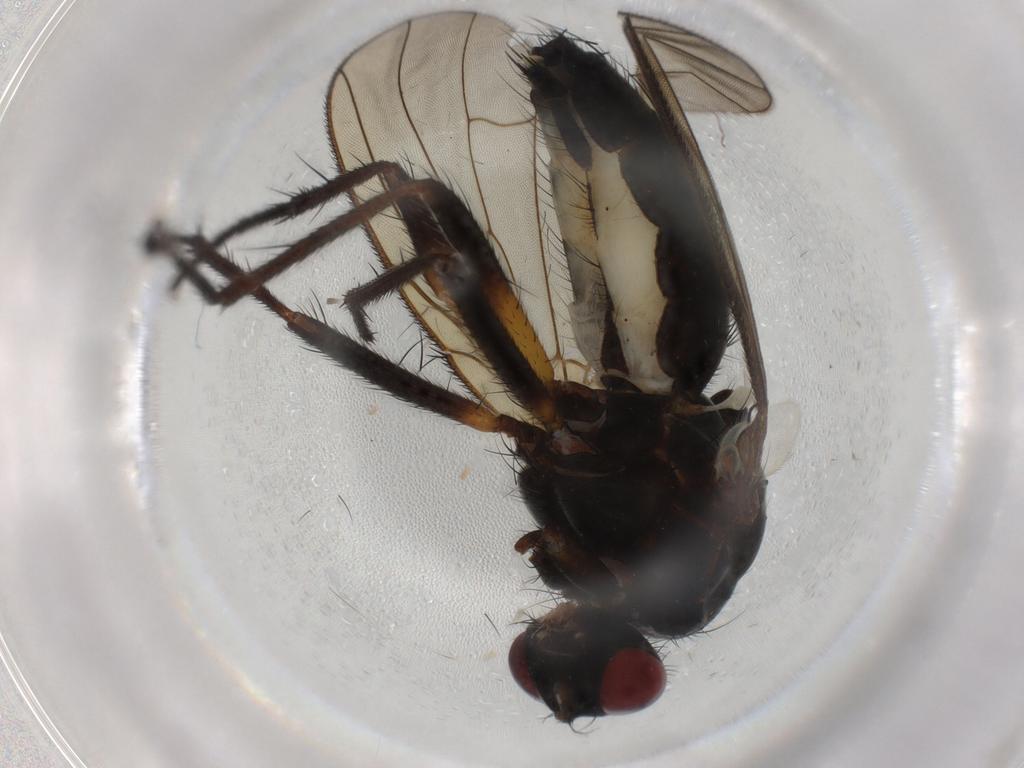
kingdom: Animalia
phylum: Arthropoda
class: Insecta
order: Diptera
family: Anthomyiidae
